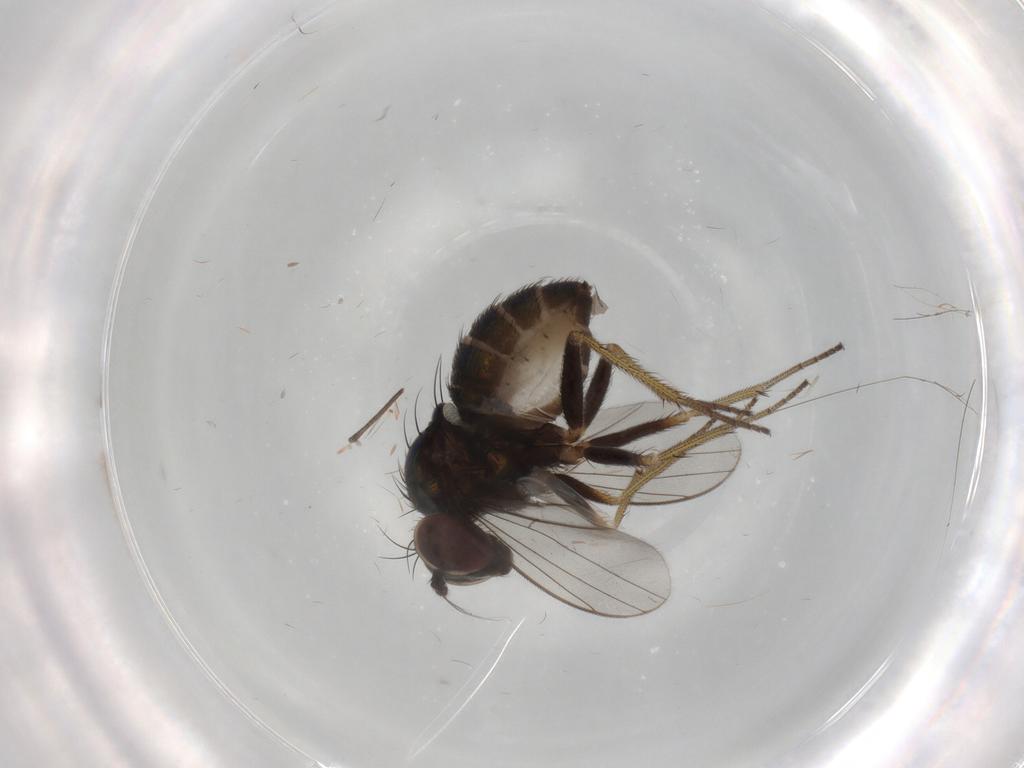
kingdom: Animalia
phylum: Arthropoda
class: Insecta
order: Diptera
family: Dolichopodidae
